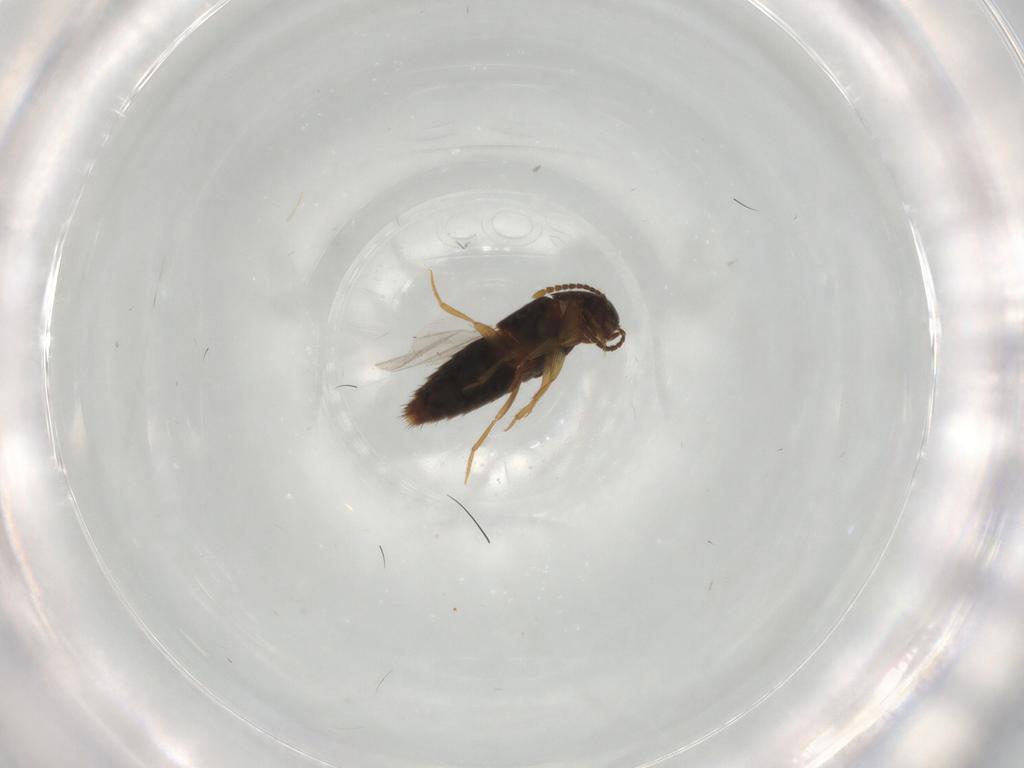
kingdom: Animalia
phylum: Arthropoda
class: Insecta
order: Coleoptera
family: Staphylinidae
